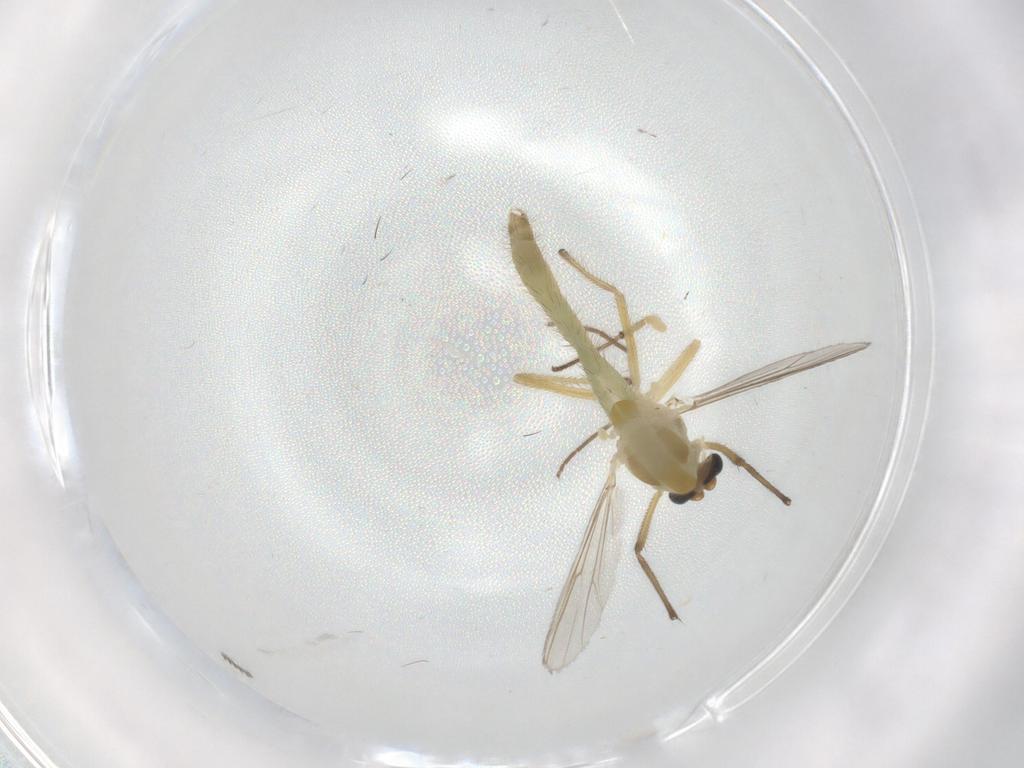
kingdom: Animalia
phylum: Arthropoda
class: Insecta
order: Diptera
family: Chironomidae
